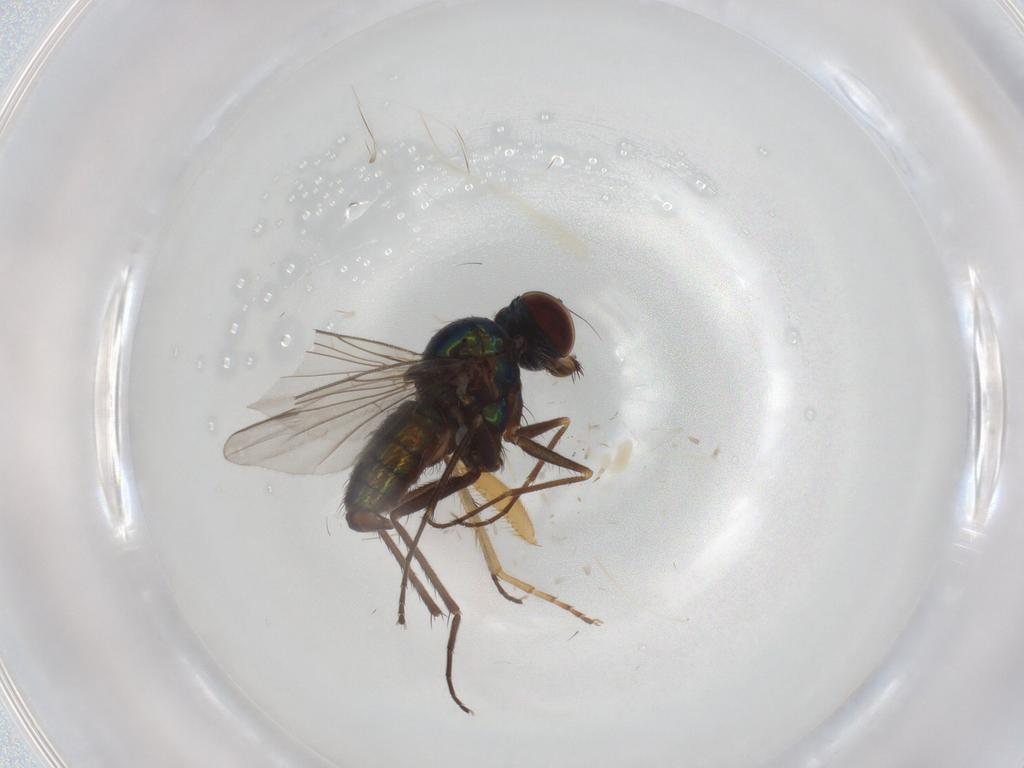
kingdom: Animalia
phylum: Arthropoda
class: Insecta
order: Diptera
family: Dolichopodidae
